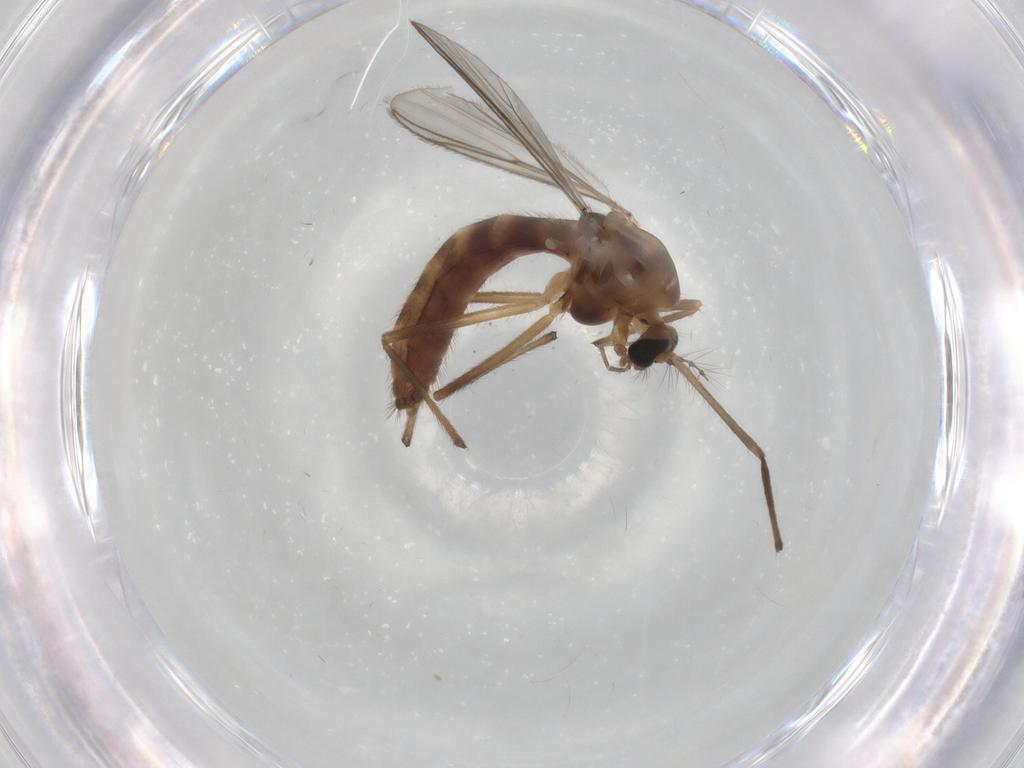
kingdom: Animalia
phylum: Arthropoda
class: Insecta
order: Diptera
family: Chironomidae
